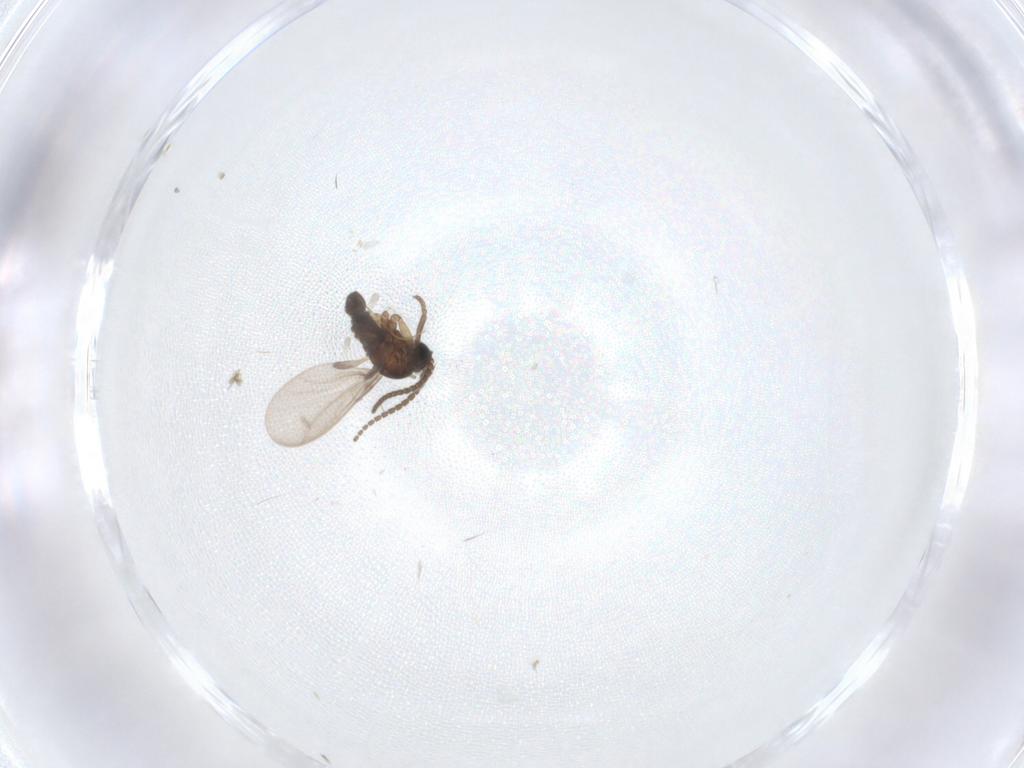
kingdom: Animalia
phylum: Arthropoda
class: Insecta
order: Diptera
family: Sciaridae
